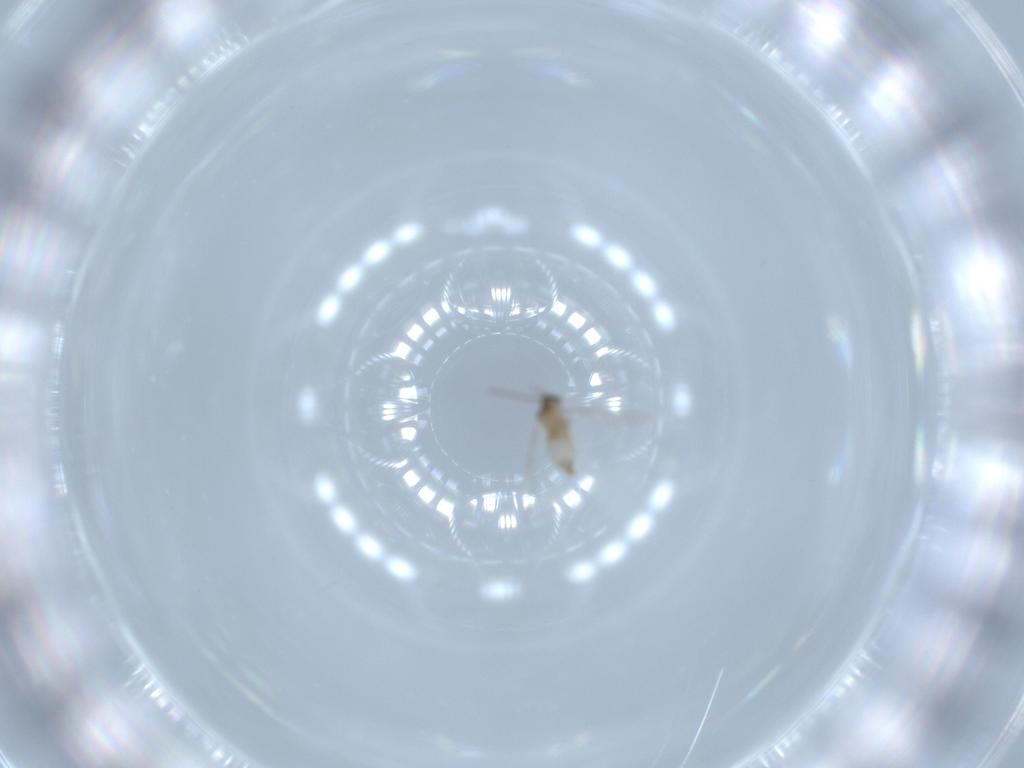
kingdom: Animalia
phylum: Arthropoda
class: Insecta
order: Diptera
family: Cecidomyiidae
